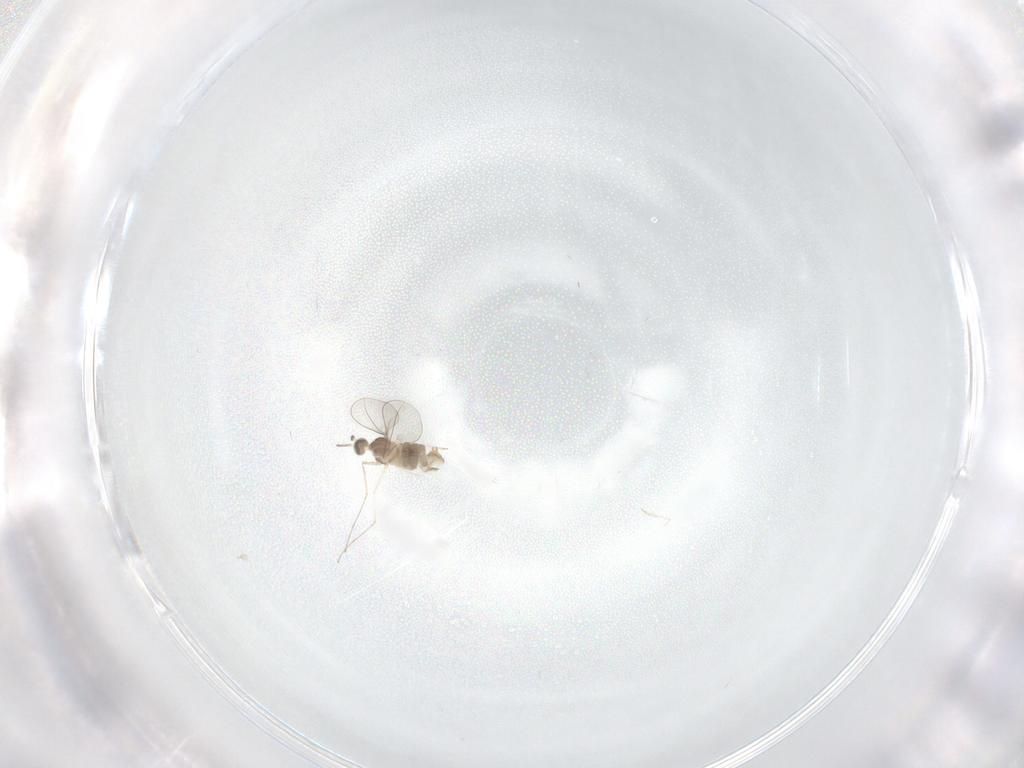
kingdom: Animalia
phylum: Arthropoda
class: Insecta
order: Diptera
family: Cecidomyiidae
